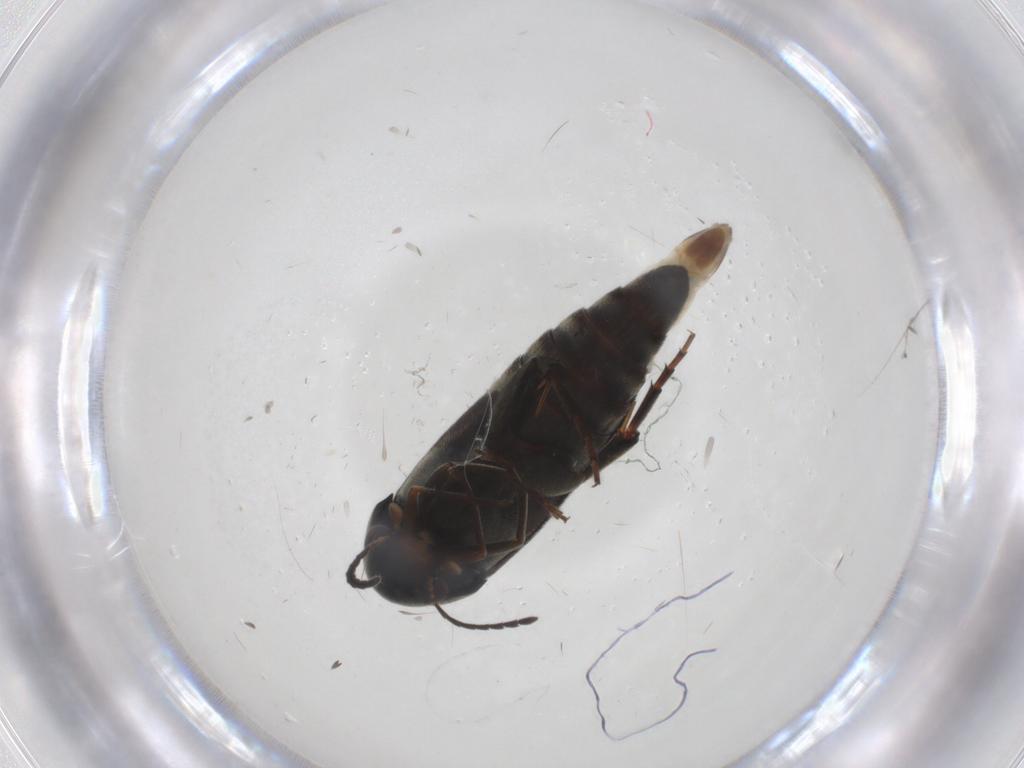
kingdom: Animalia
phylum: Arthropoda
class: Insecta
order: Coleoptera
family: Mordellidae
